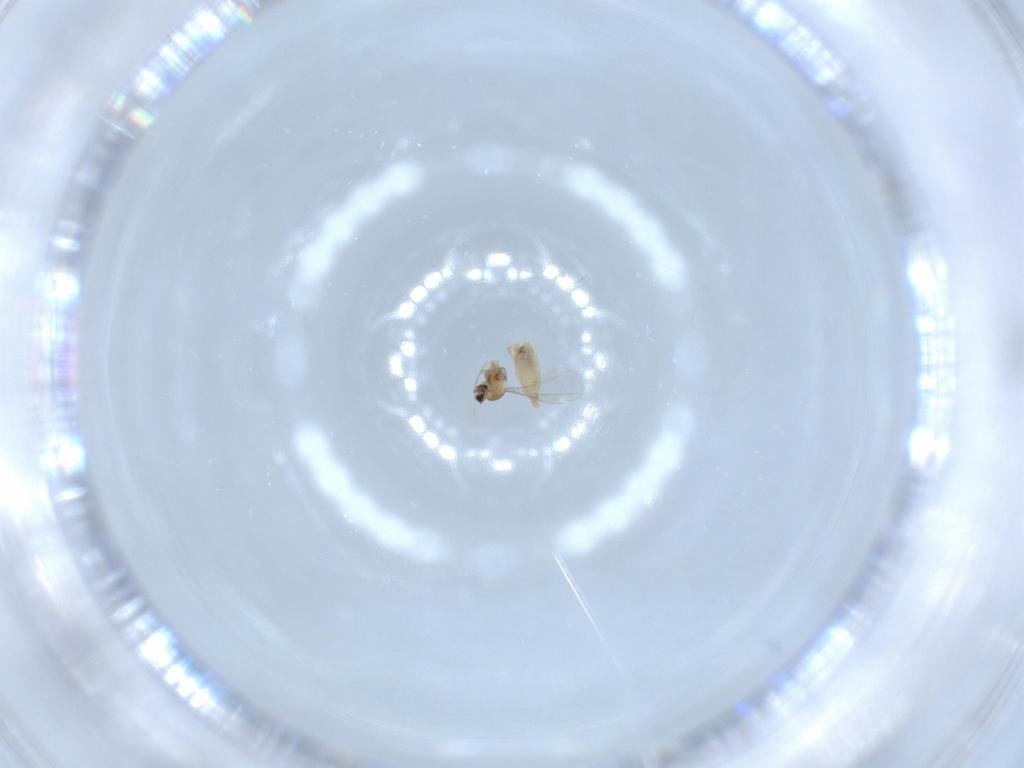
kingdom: Animalia
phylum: Arthropoda
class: Insecta
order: Diptera
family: Cecidomyiidae
